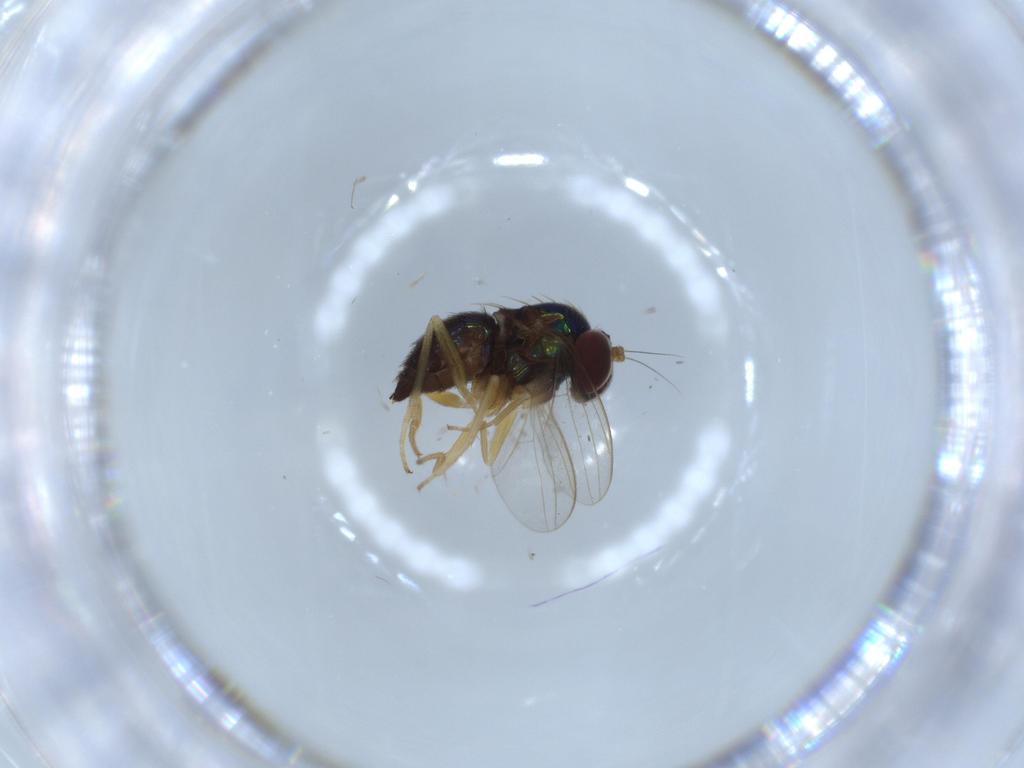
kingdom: Animalia
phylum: Arthropoda
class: Insecta
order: Diptera
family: Dolichopodidae
